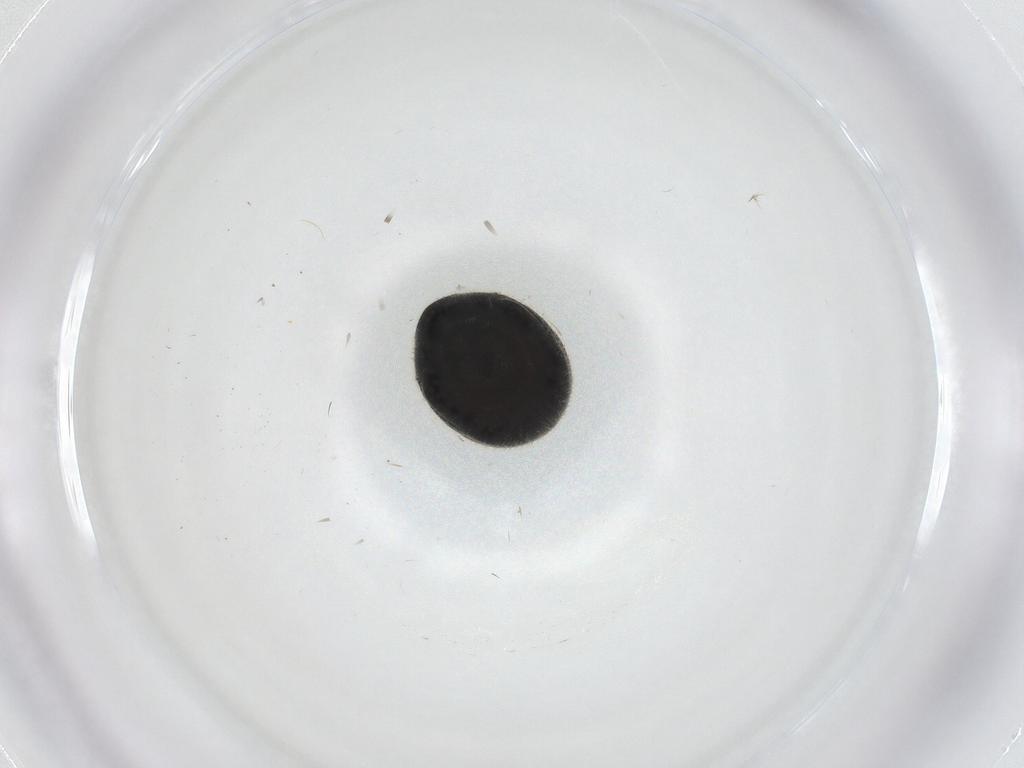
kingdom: Animalia
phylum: Arthropoda
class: Insecta
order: Coleoptera
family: Ptinidae
